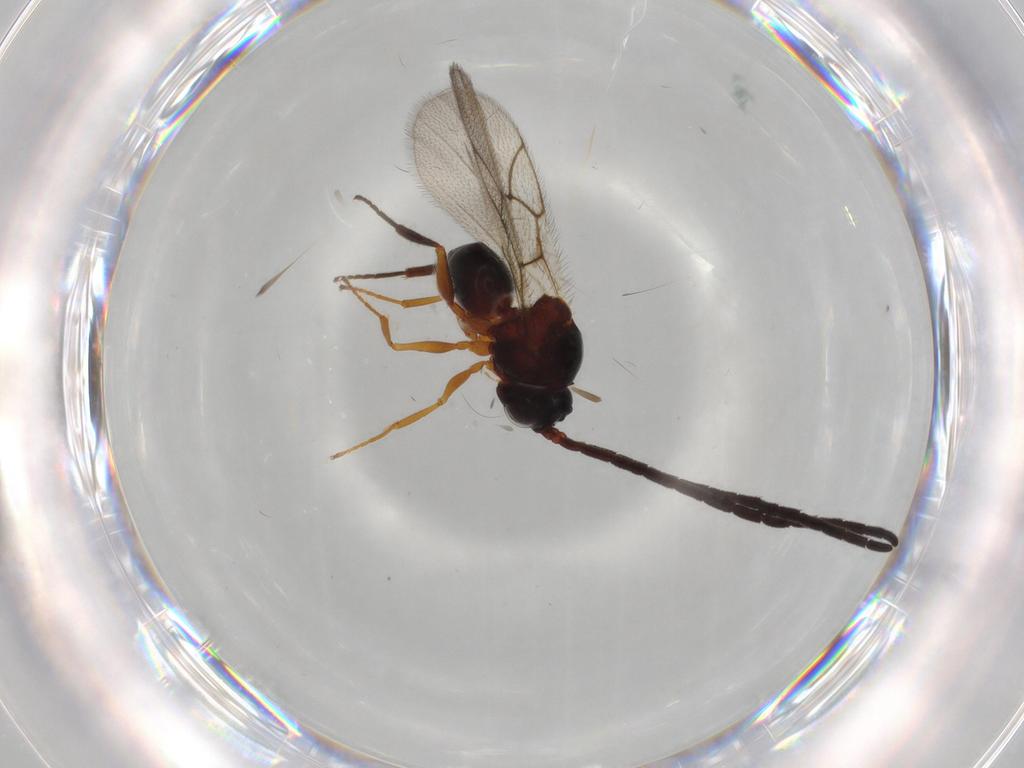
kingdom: Animalia
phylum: Arthropoda
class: Insecta
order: Hymenoptera
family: Figitidae
